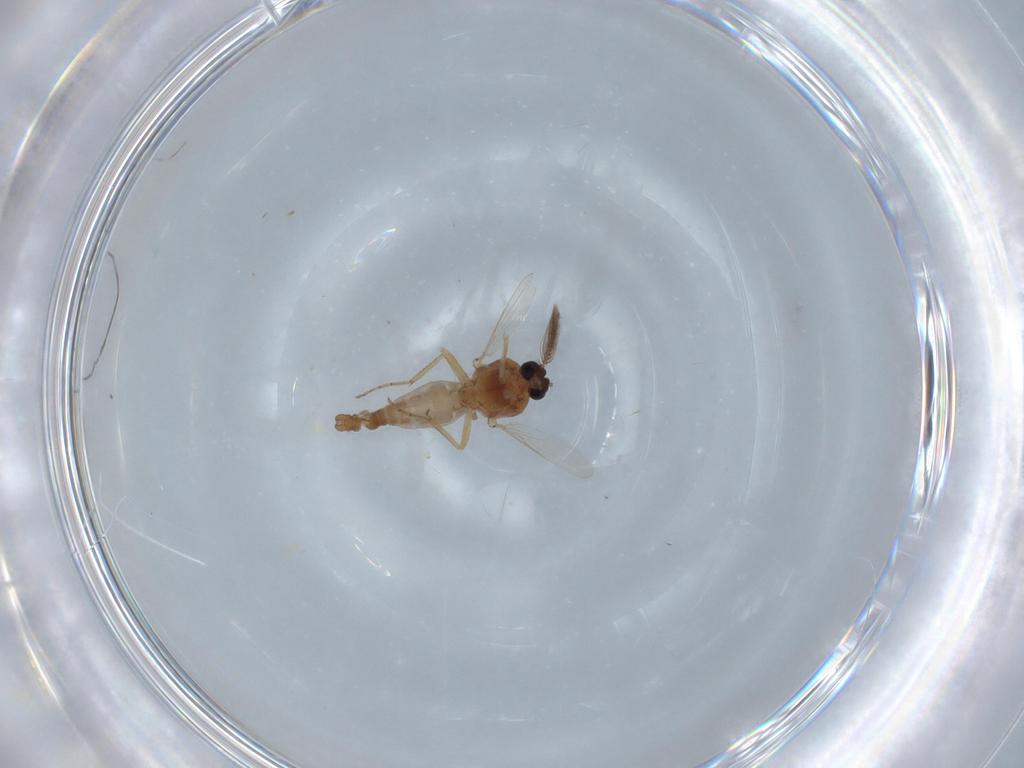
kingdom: Animalia
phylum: Arthropoda
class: Insecta
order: Diptera
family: Ceratopogonidae
